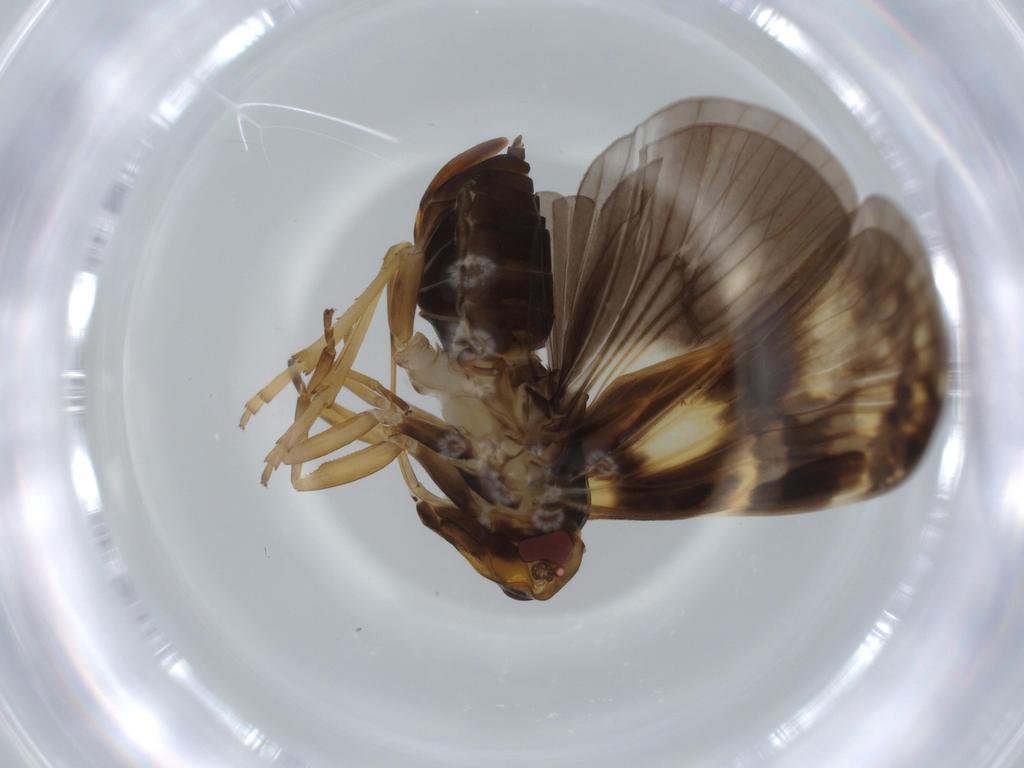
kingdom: Animalia
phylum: Arthropoda
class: Insecta
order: Hemiptera
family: Cixiidae
